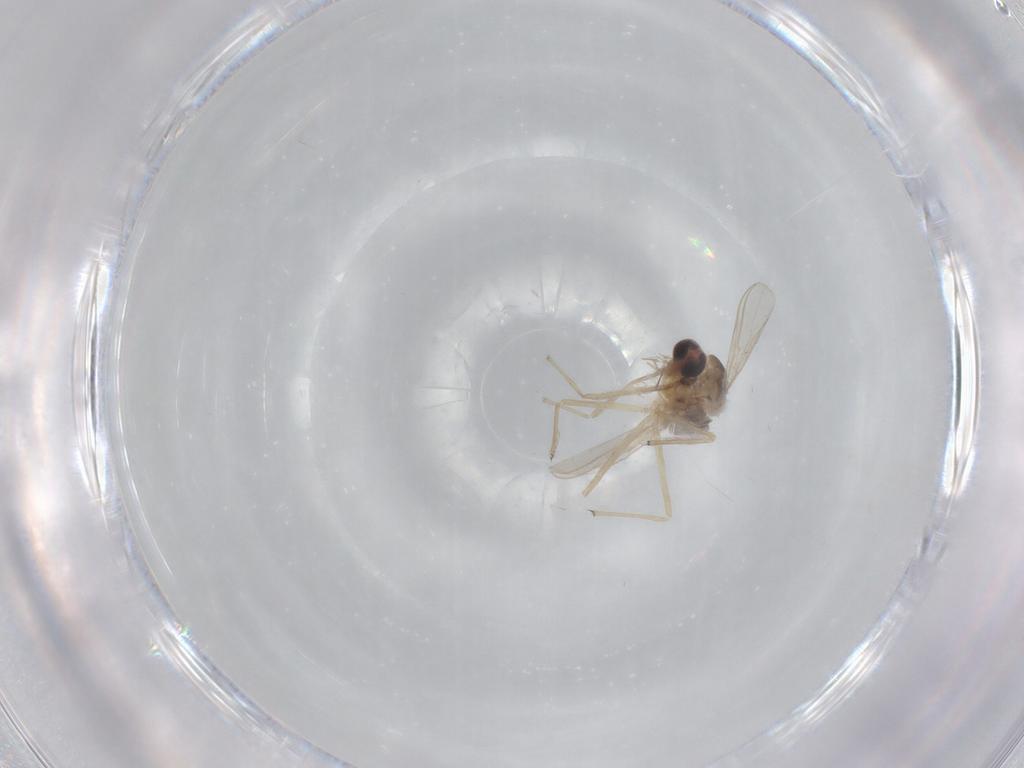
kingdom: Animalia
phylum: Arthropoda
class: Insecta
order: Diptera
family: Chironomidae
